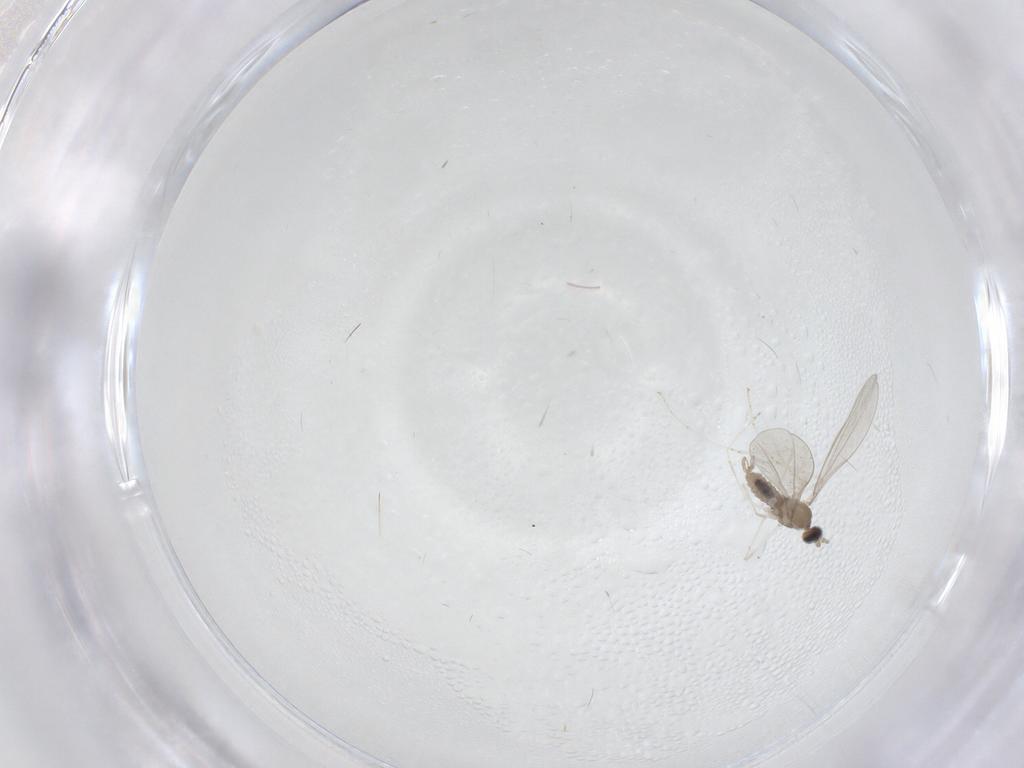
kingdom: Animalia
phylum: Arthropoda
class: Insecta
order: Diptera
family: Cecidomyiidae
